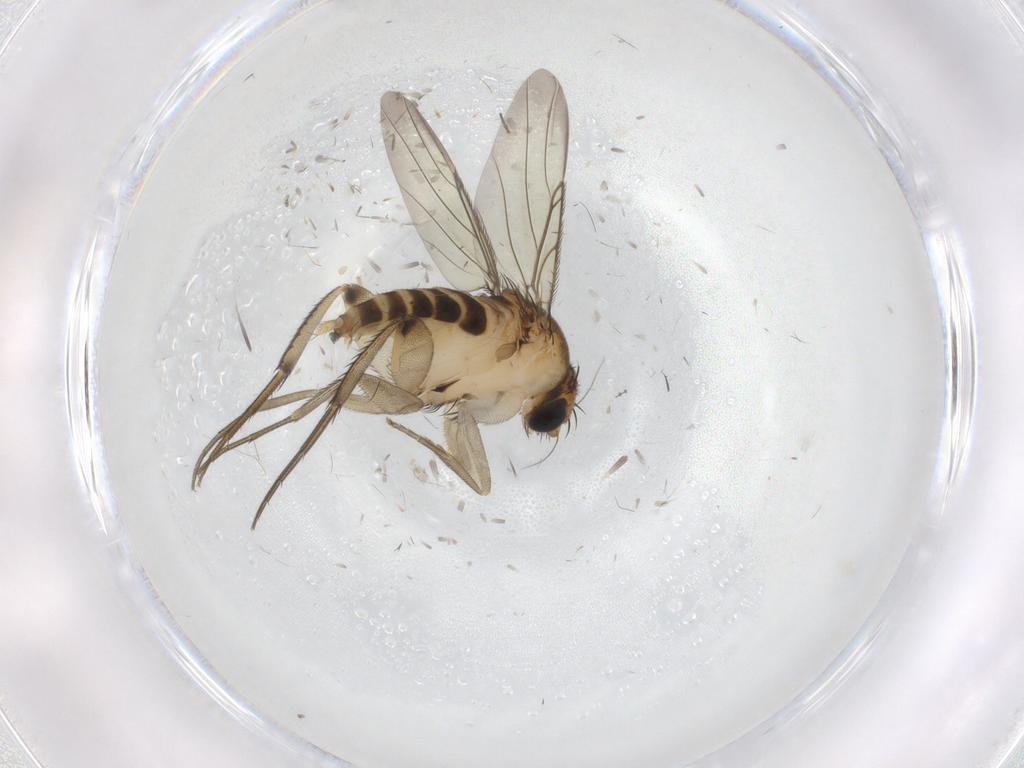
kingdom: Animalia
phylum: Arthropoda
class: Insecta
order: Diptera
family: Phoridae
